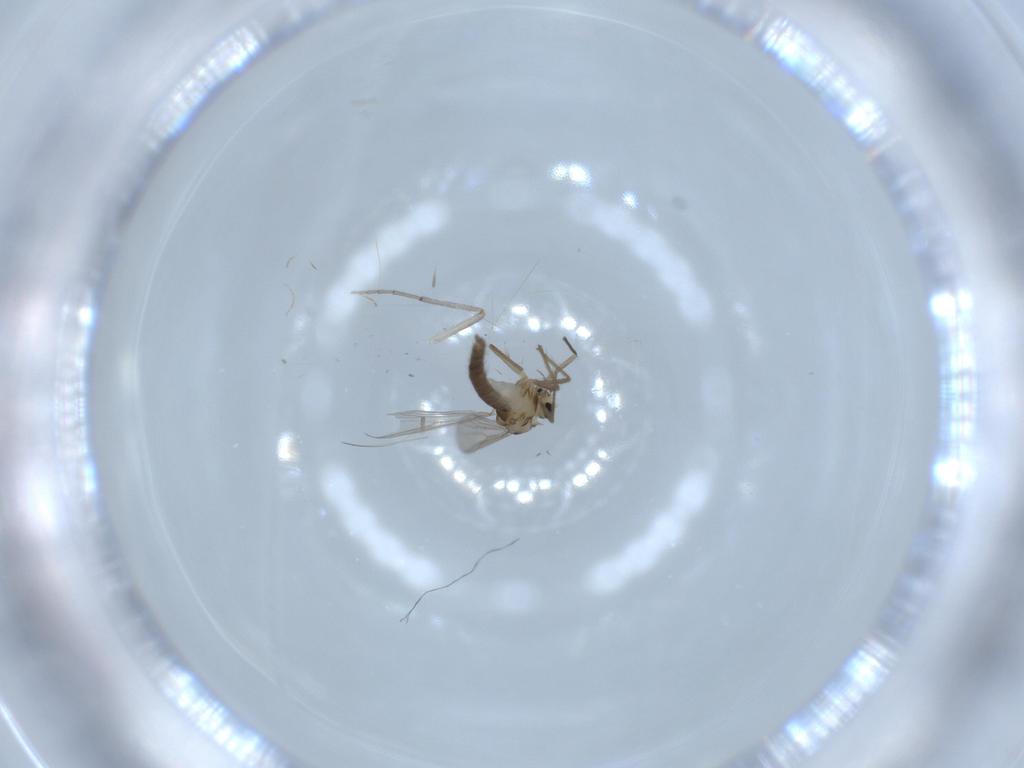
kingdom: Animalia
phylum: Arthropoda
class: Insecta
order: Diptera
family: Chironomidae
